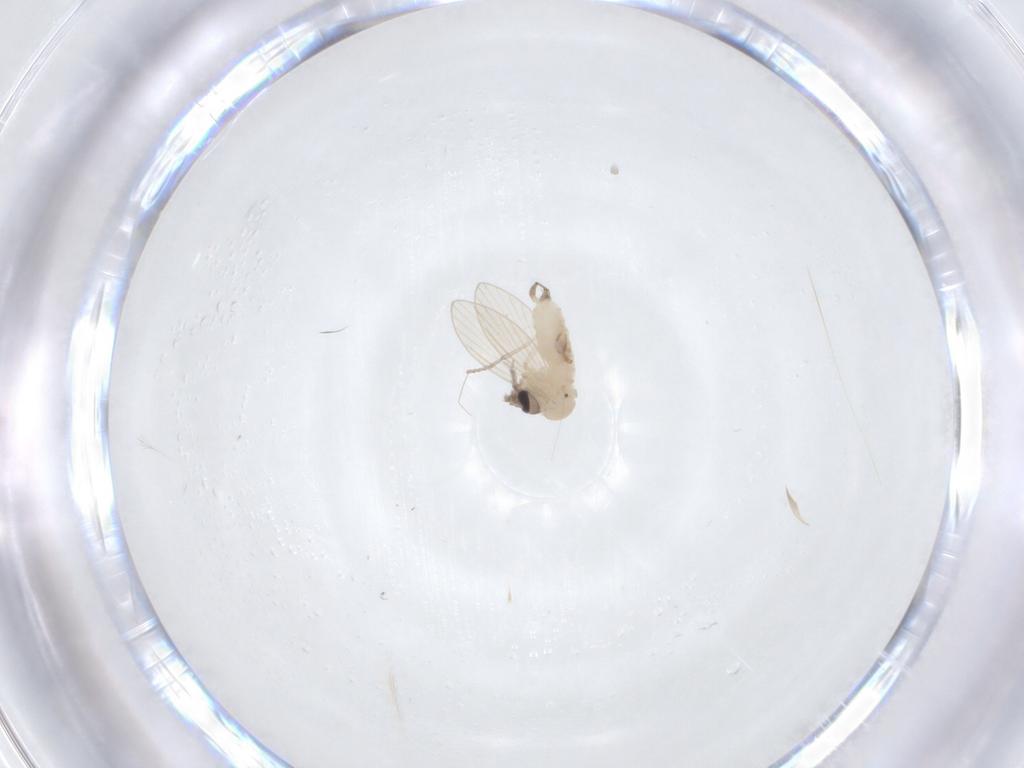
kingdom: Animalia
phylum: Arthropoda
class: Insecta
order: Diptera
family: Psychodidae
